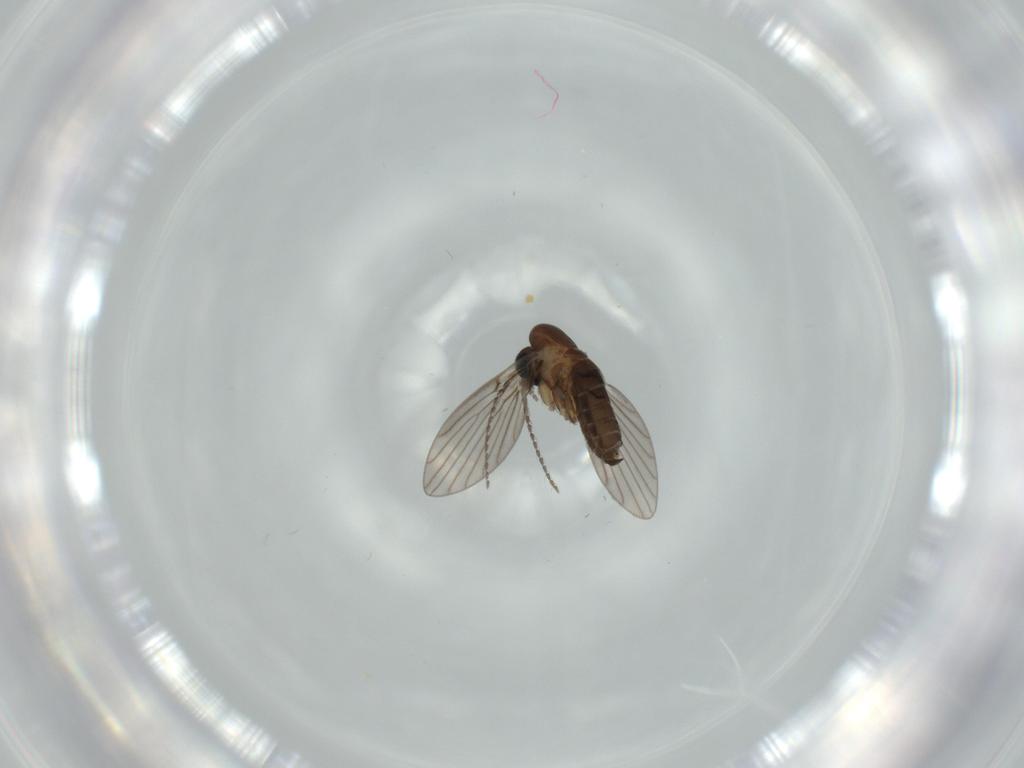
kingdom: Animalia
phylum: Arthropoda
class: Insecta
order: Diptera
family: Psychodidae
